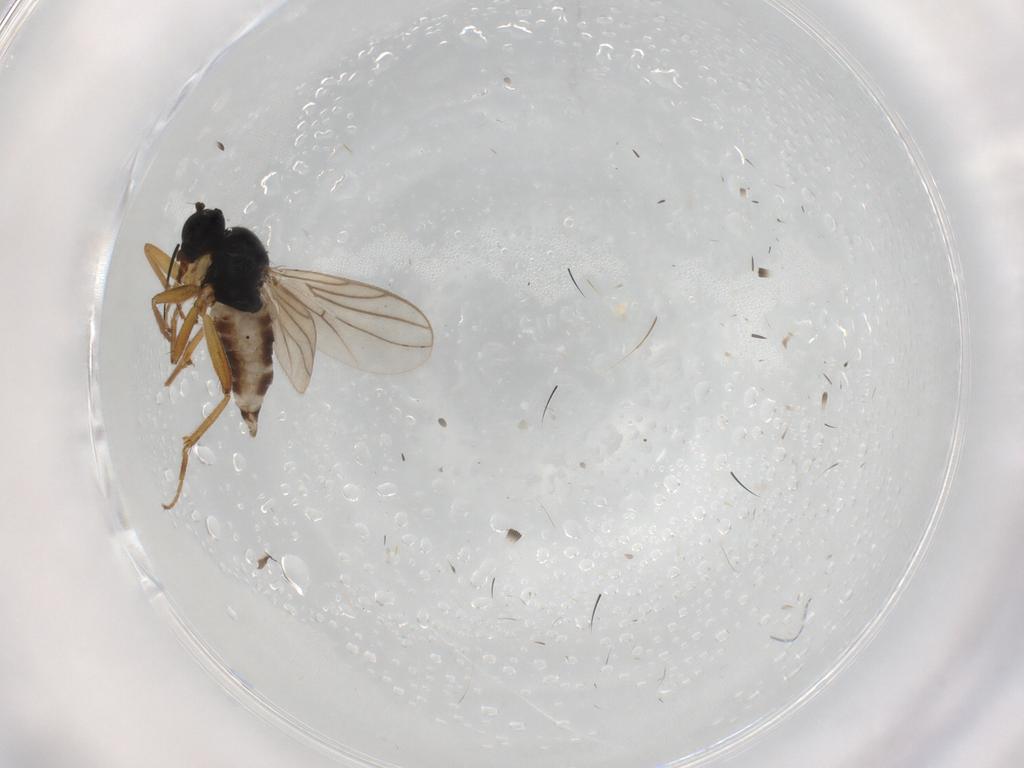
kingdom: Animalia
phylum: Arthropoda
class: Insecta
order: Diptera
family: Hybotidae
